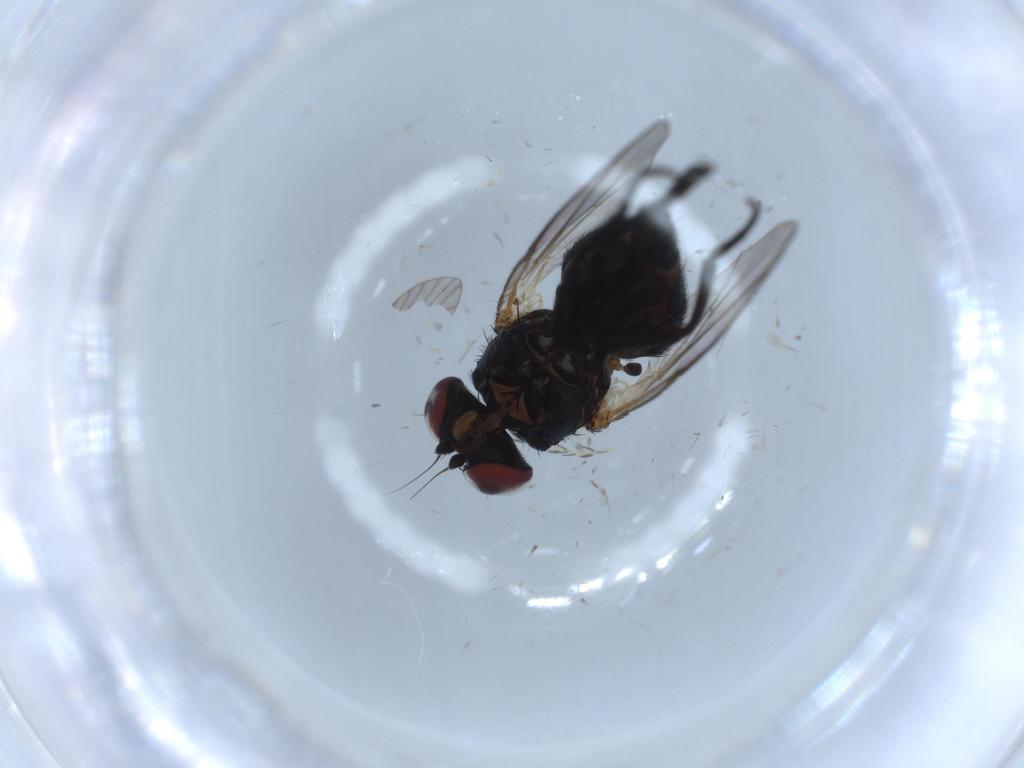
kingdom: Animalia
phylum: Arthropoda
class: Insecta
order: Diptera
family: Agromyzidae
